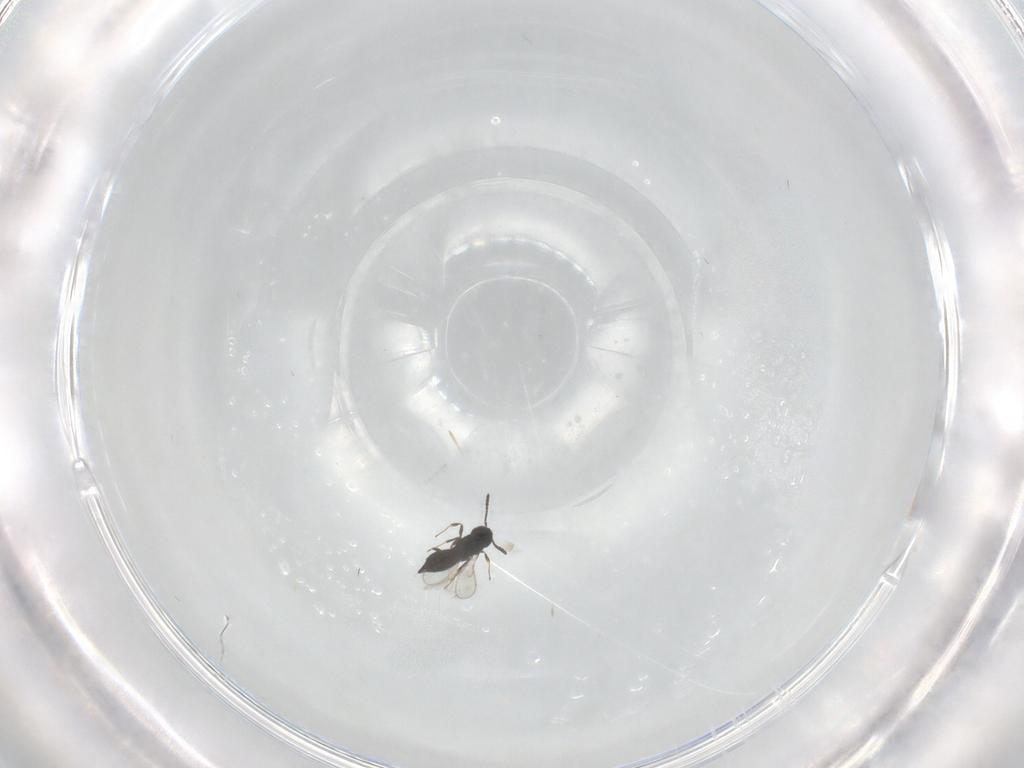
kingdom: Animalia
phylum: Arthropoda
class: Insecta
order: Hymenoptera
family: Scelionidae
